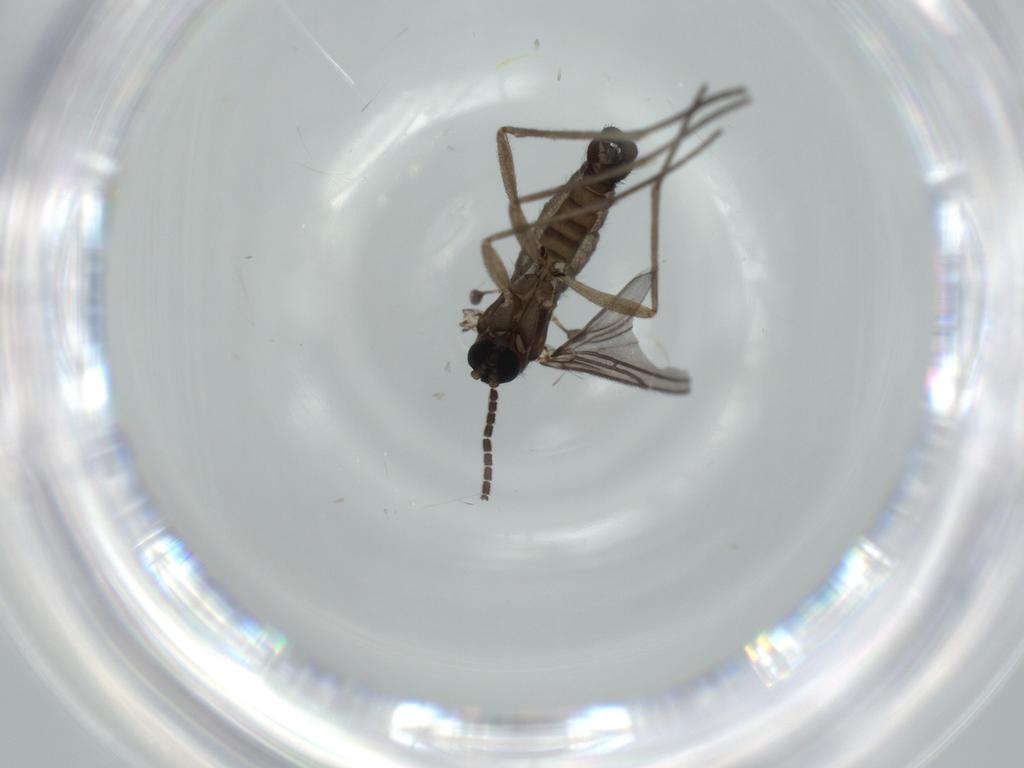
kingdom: Animalia
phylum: Arthropoda
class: Insecta
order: Diptera
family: Sciaridae
